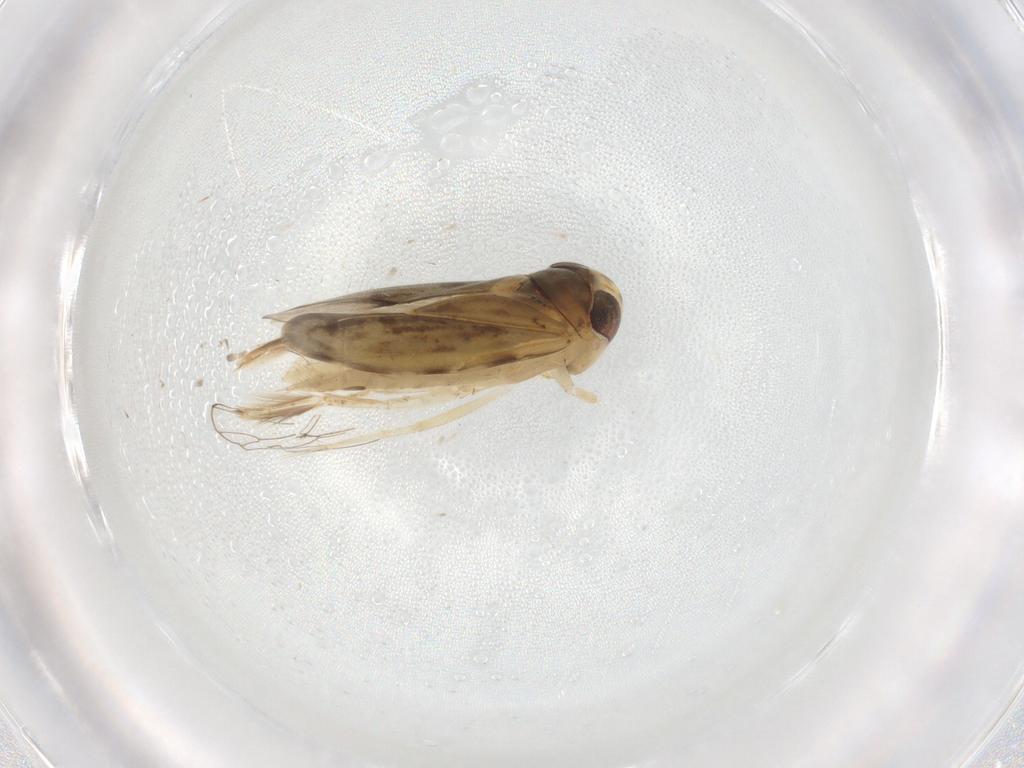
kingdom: Animalia
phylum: Arthropoda
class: Insecta
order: Hemiptera
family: Corixidae
